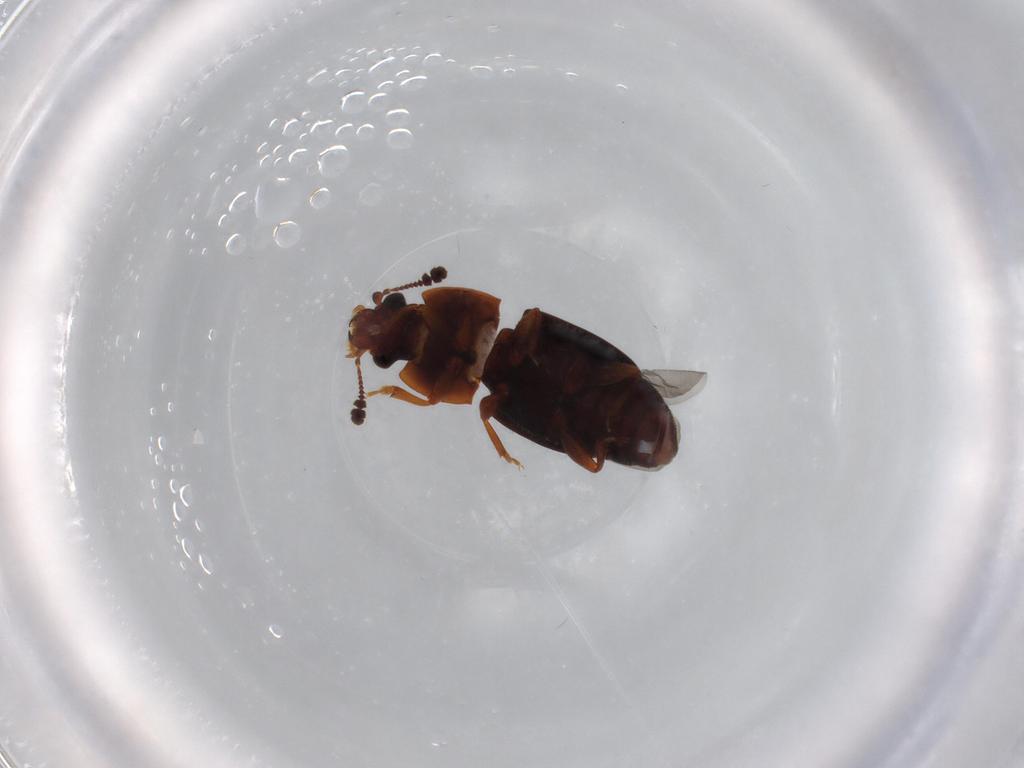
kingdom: Animalia
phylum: Arthropoda
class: Insecta
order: Coleoptera
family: Nitidulidae
